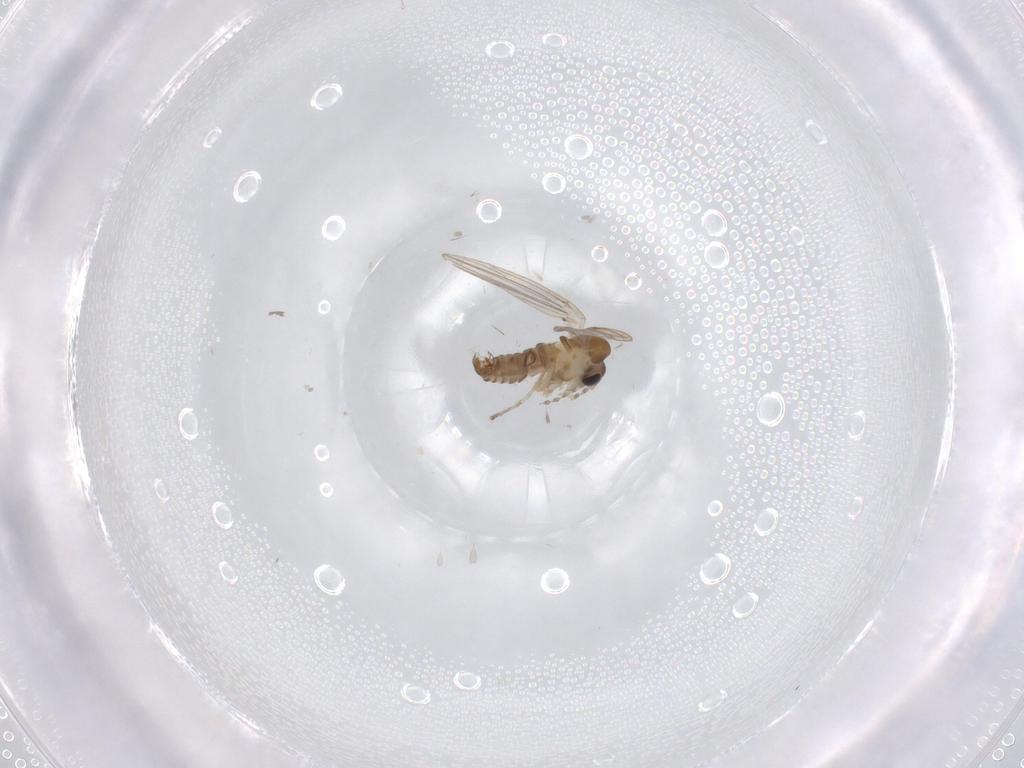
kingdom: Animalia
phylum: Arthropoda
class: Insecta
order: Diptera
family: Psychodidae
